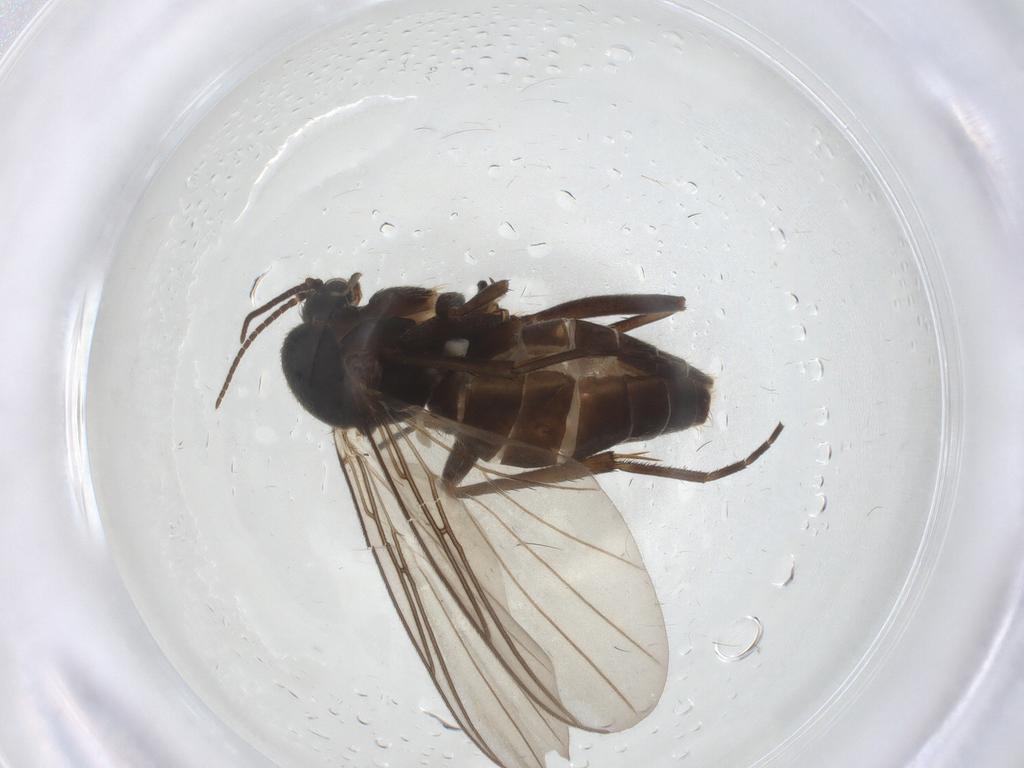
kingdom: Animalia
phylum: Arthropoda
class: Insecta
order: Diptera
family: Mycetophilidae
